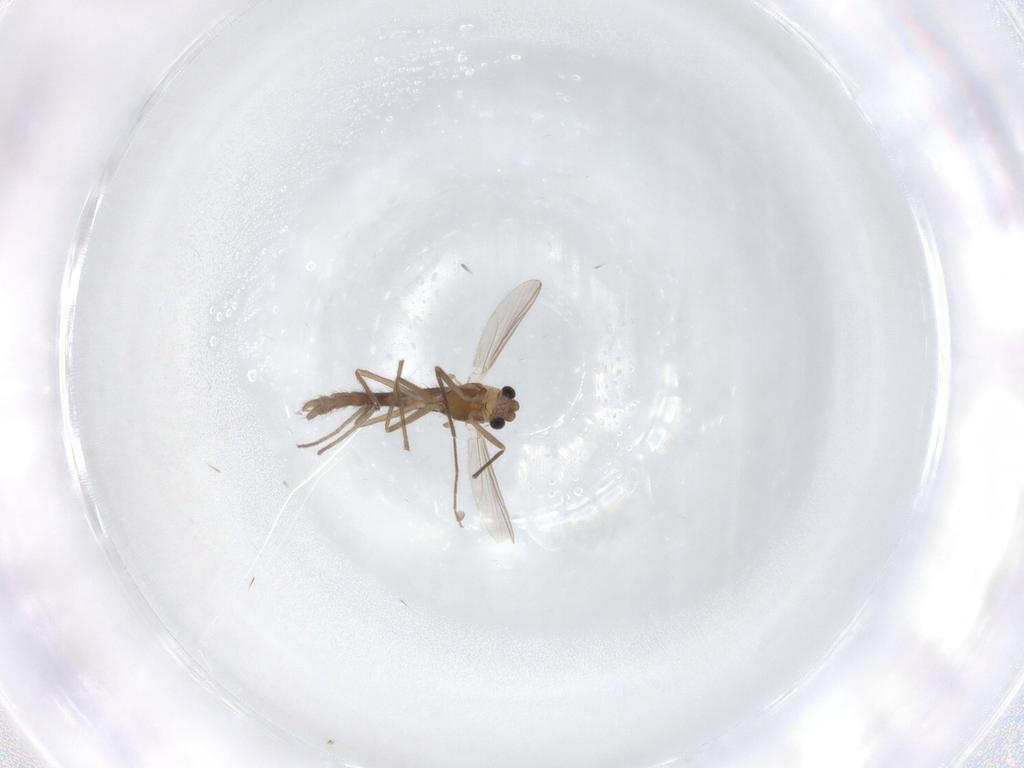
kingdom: Animalia
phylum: Arthropoda
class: Insecta
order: Diptera
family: Chironomidae
